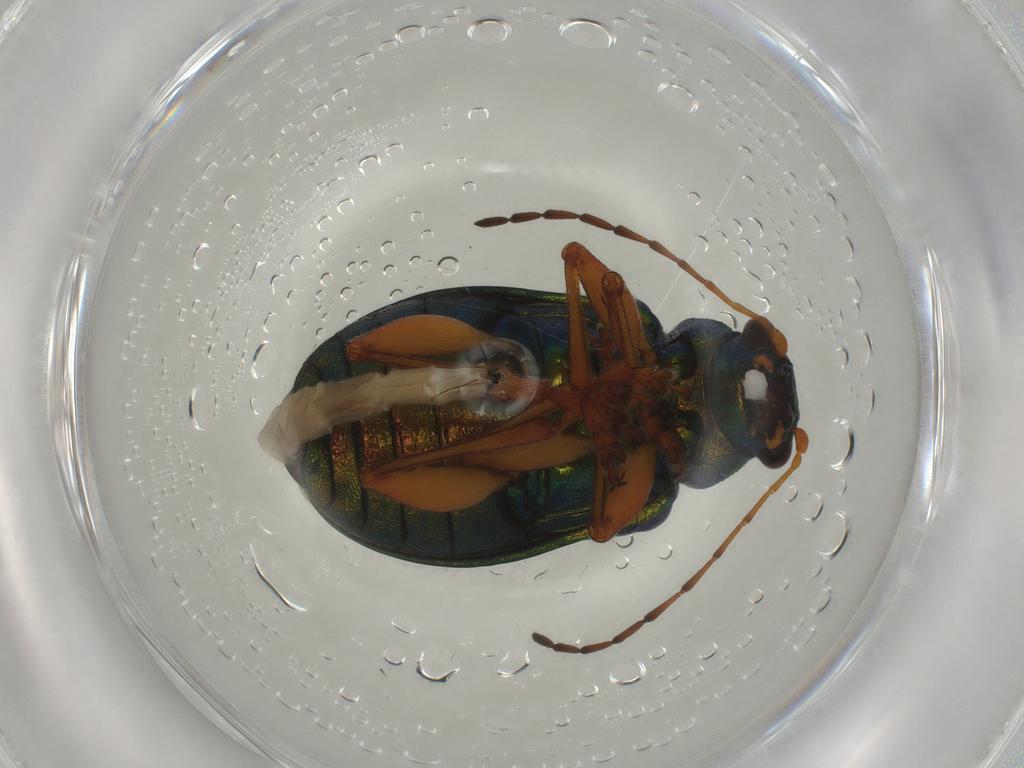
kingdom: Animalia
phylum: Arthropoda
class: Insecta
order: Coleoptera
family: Chrysomelidae
